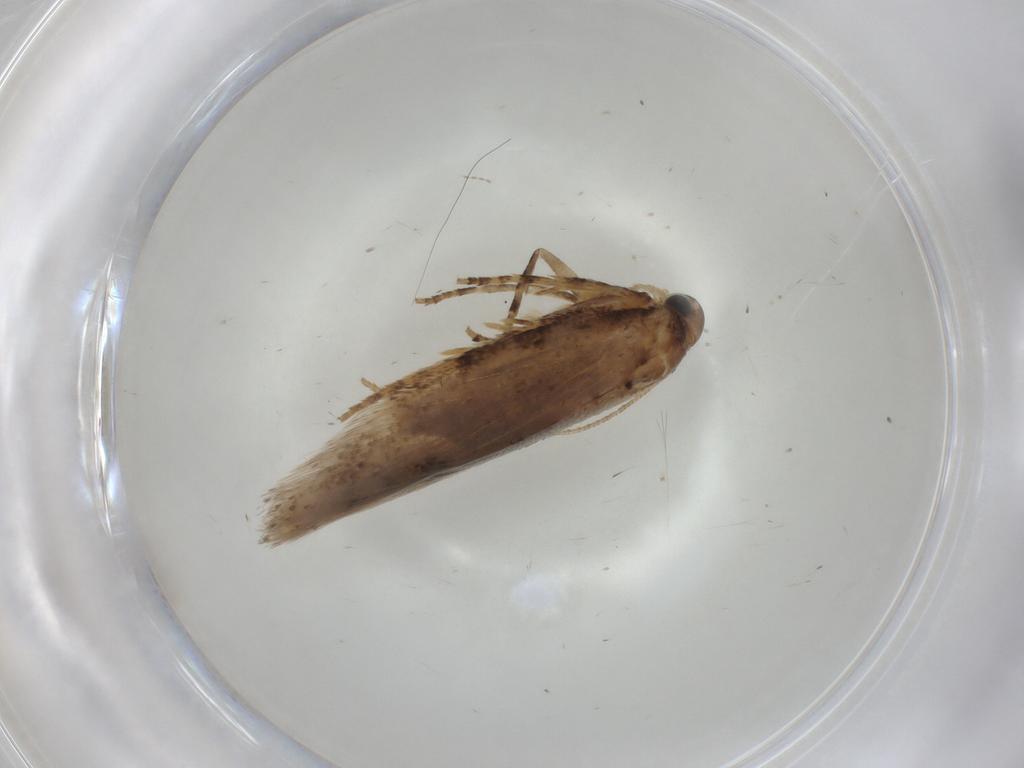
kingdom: Animalia
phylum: Arthropoda
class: Insecta
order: Lepidoptera
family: Gelechiidae
